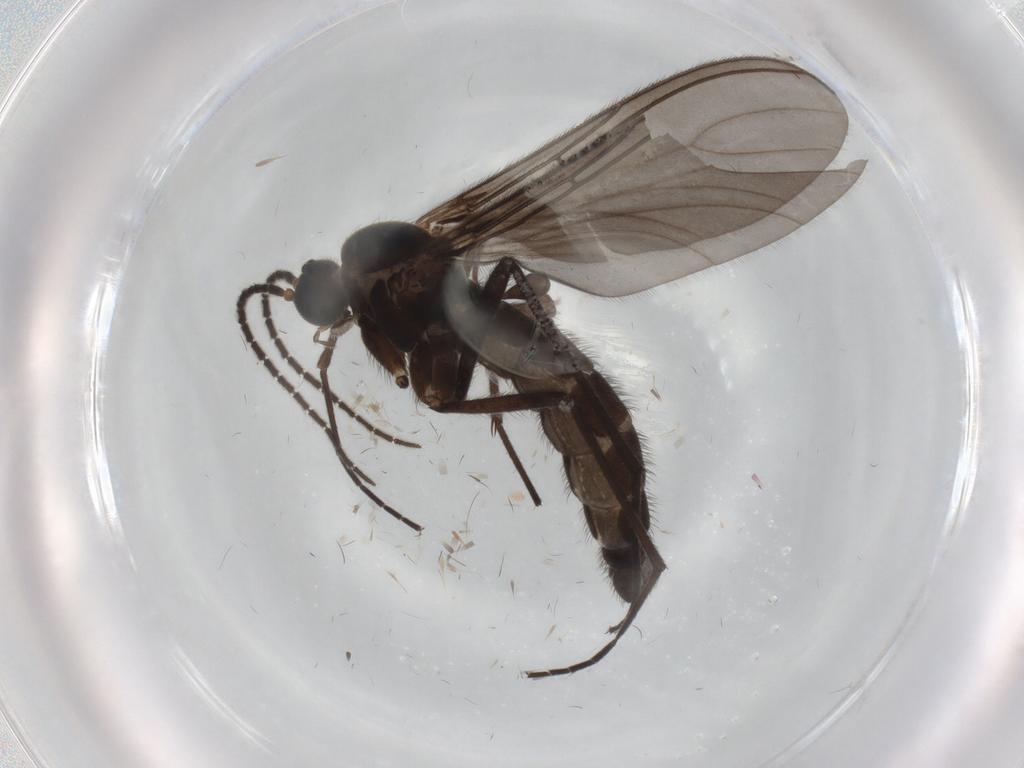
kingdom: Animalia
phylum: Arthropoda
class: Insecta
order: Diptera
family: Sciaridae
